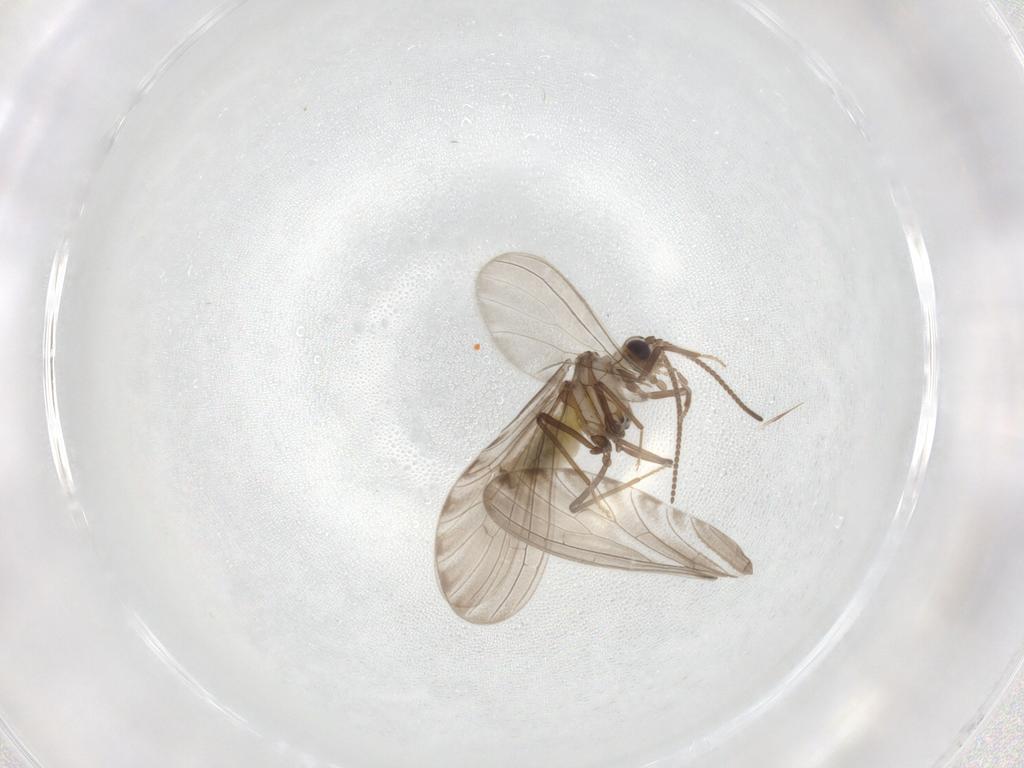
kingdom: Animalia
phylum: Arthropoda
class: Insecta
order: Neuroptera
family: Coniopterygidae
